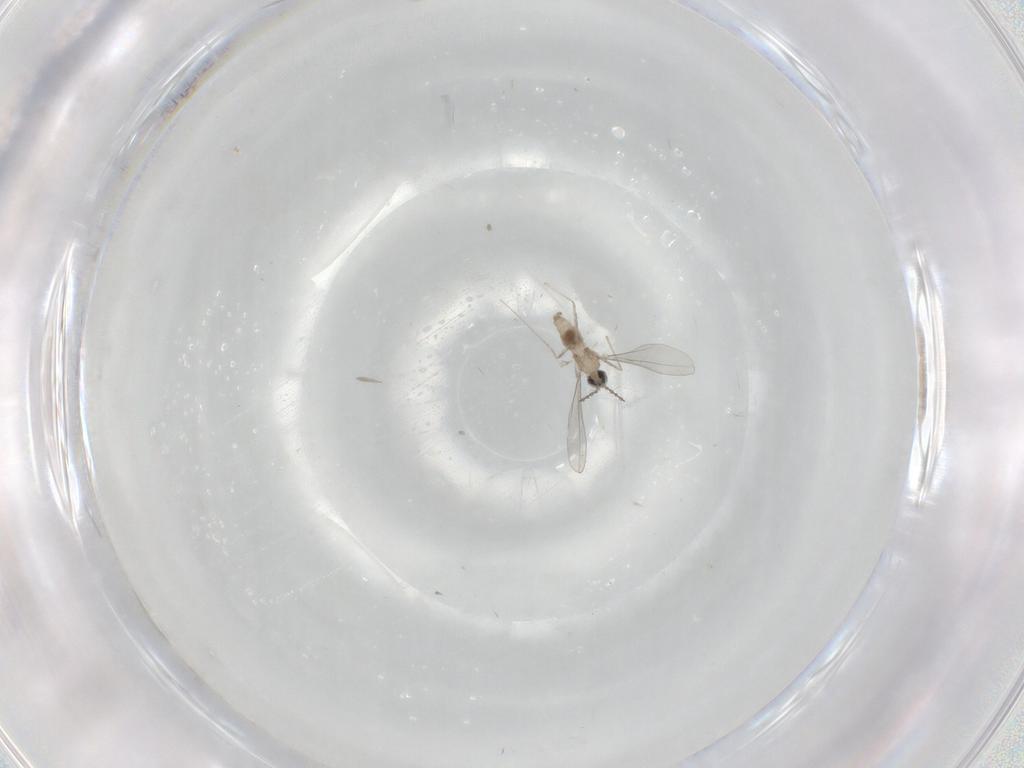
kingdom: Animalia
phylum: Arthropoda
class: Insecta
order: Diptera
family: Cecidomyiidae
